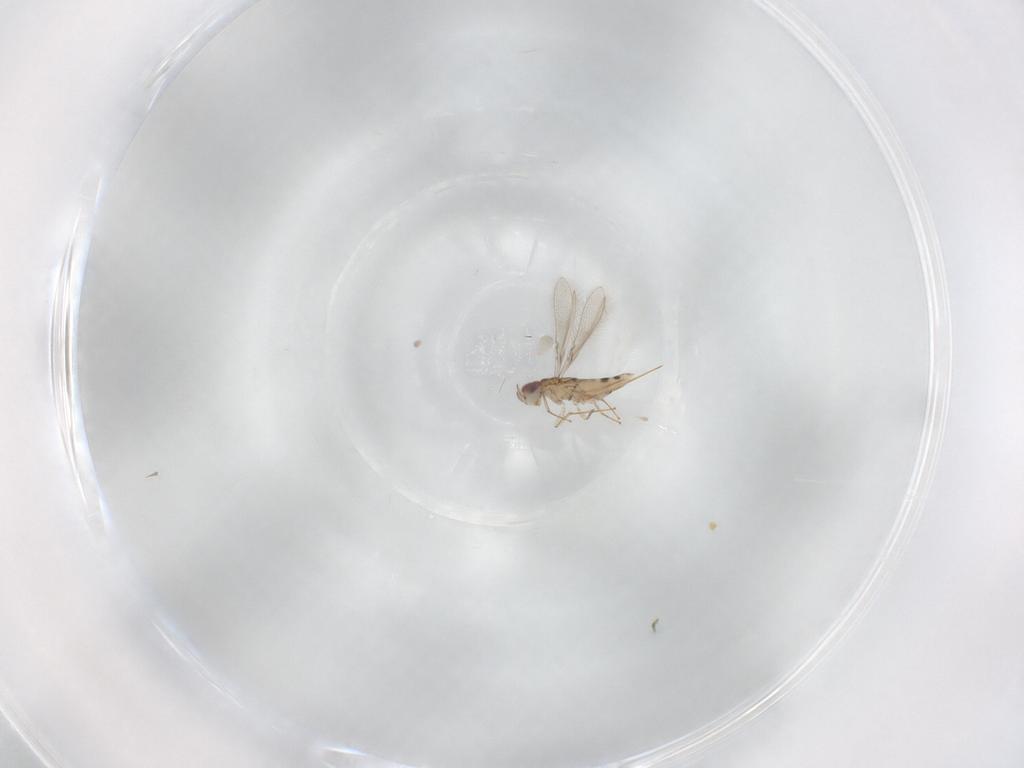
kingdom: Animalia
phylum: Arthropoda
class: Insecta
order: Hymenoptera
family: Mymaridae
